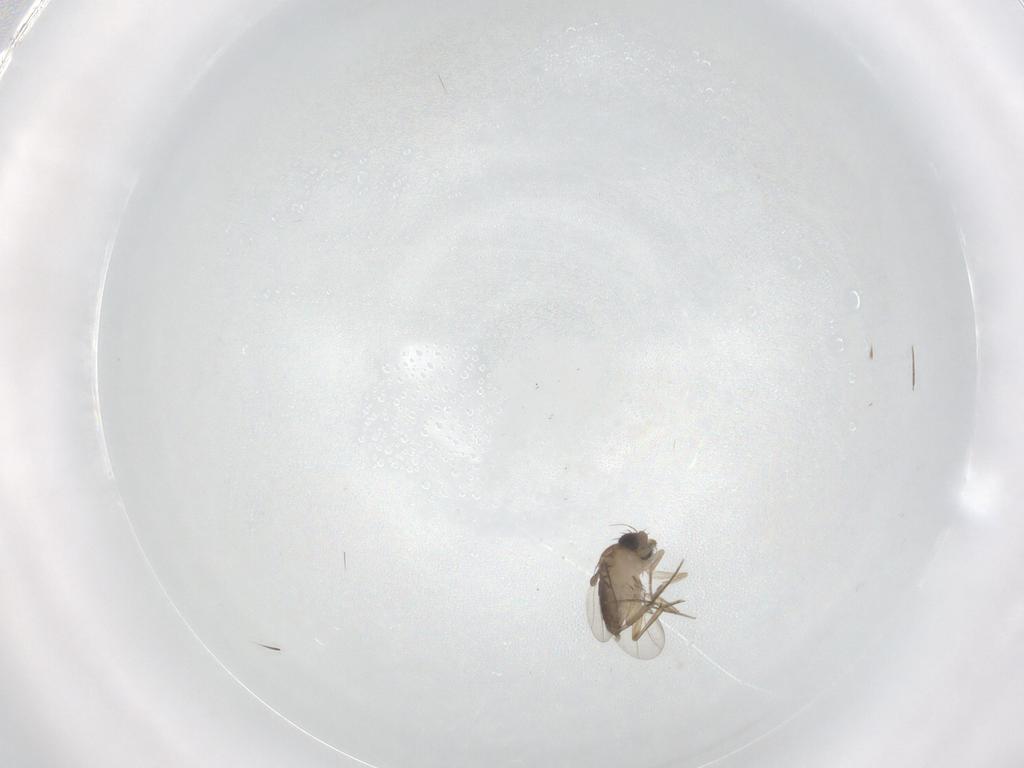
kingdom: Animalia
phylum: Arthropoda
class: Insecta
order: Diptera
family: Phoridae
